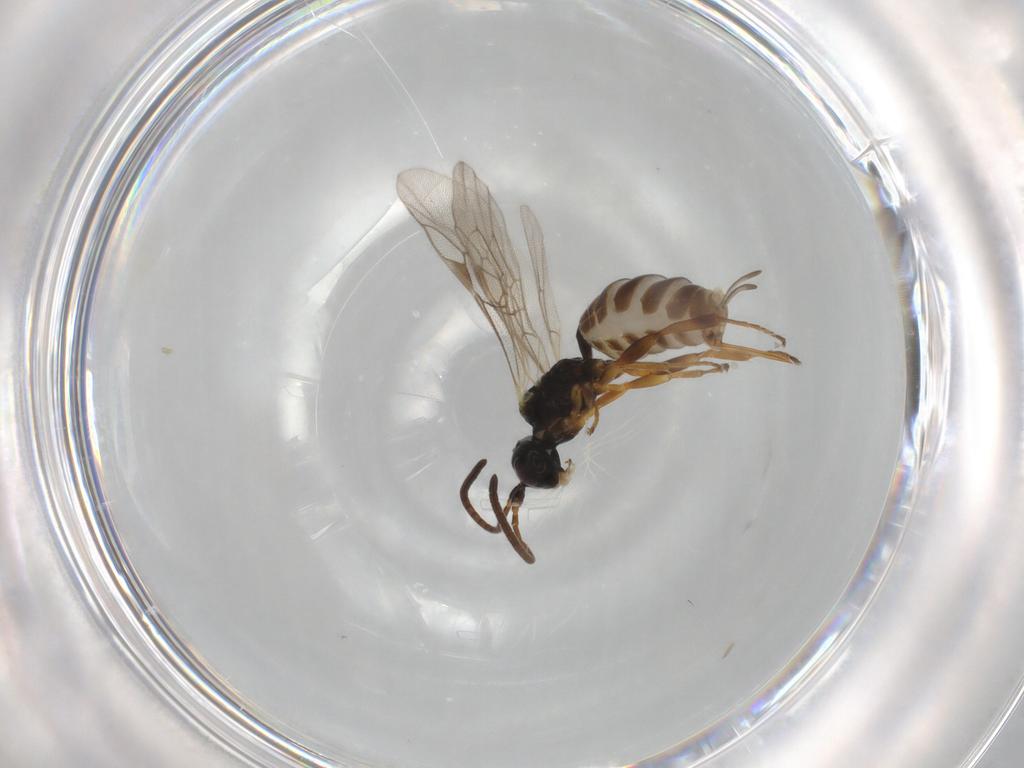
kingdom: Animalia
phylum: Arthropoda
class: Insecta
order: Hymenoptera
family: Ichneumonidae
